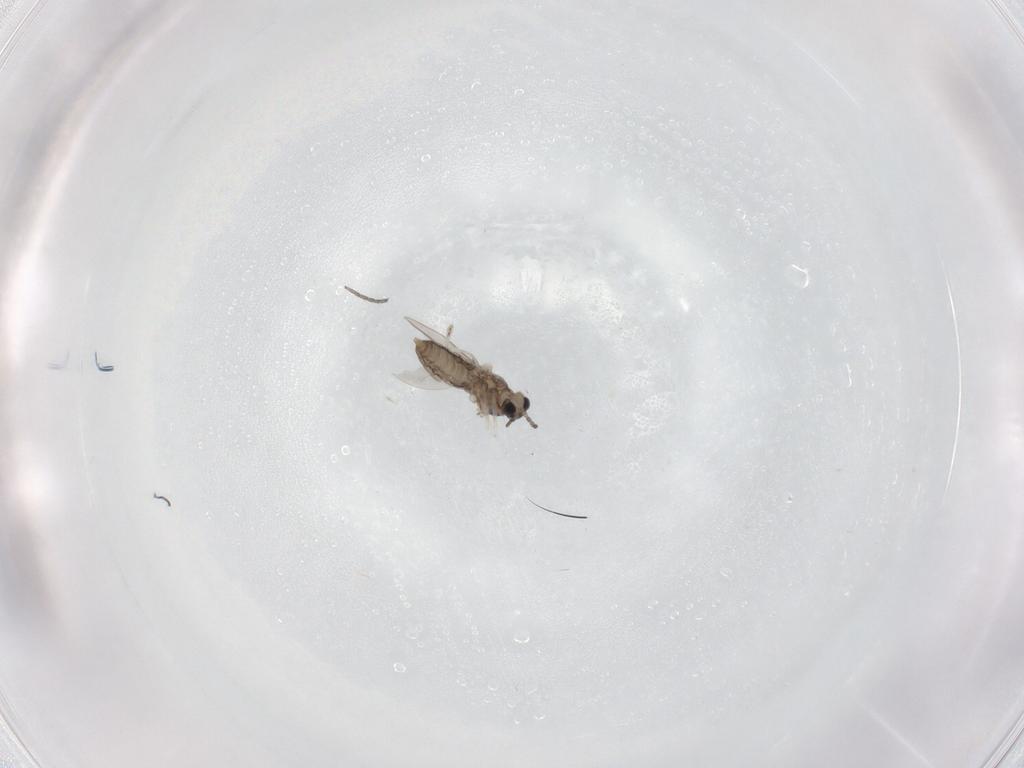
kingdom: Animalia
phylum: Arthropoda
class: Insecta
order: Diptera
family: Cecidomyiidae
